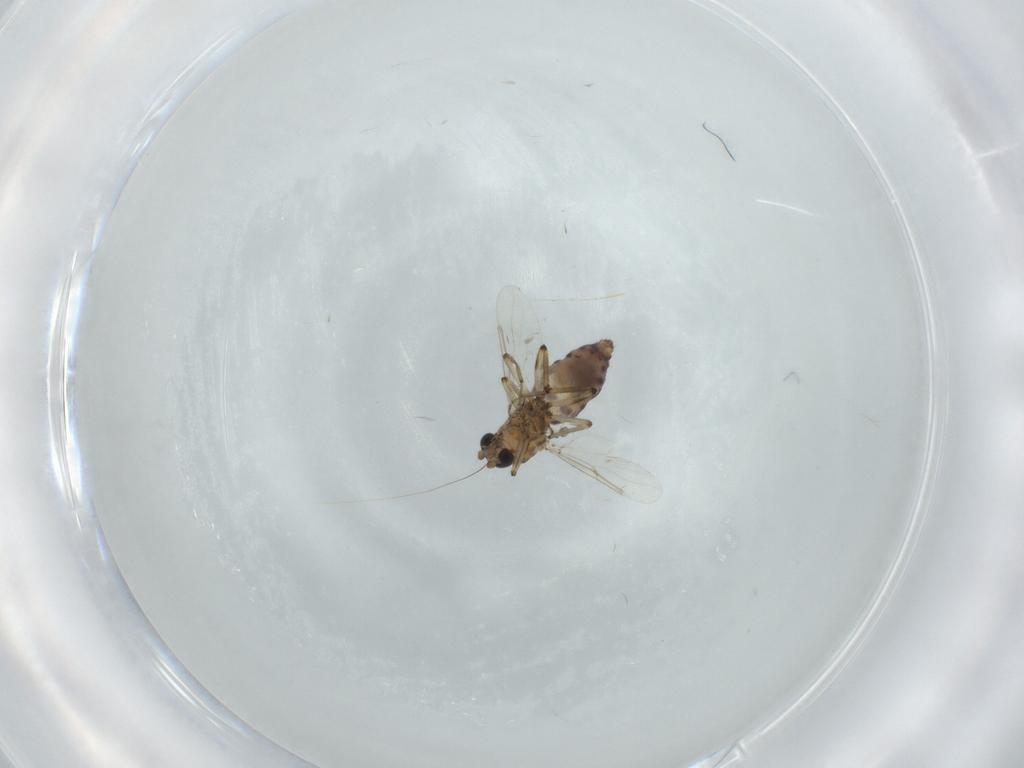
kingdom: Animalia
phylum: Arthropoda
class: Insecta
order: Diptera
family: Ceratopogonidae
